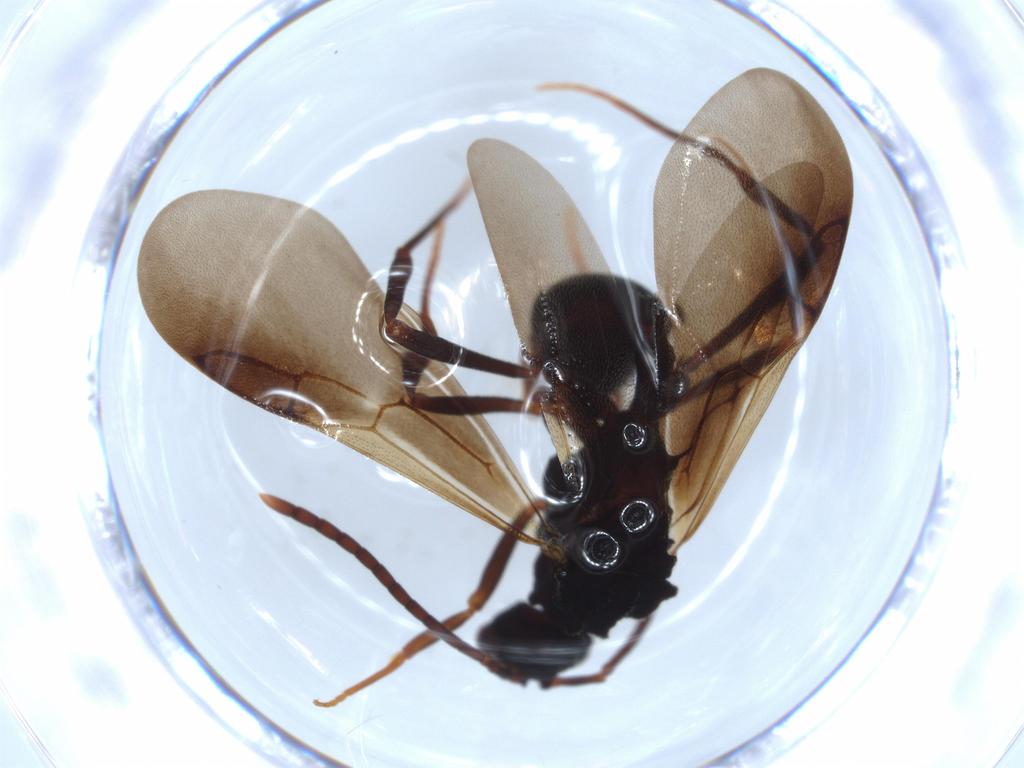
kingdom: Animalia
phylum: Arthropoda
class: Insecta
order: Hymenoptera
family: Formicidae
